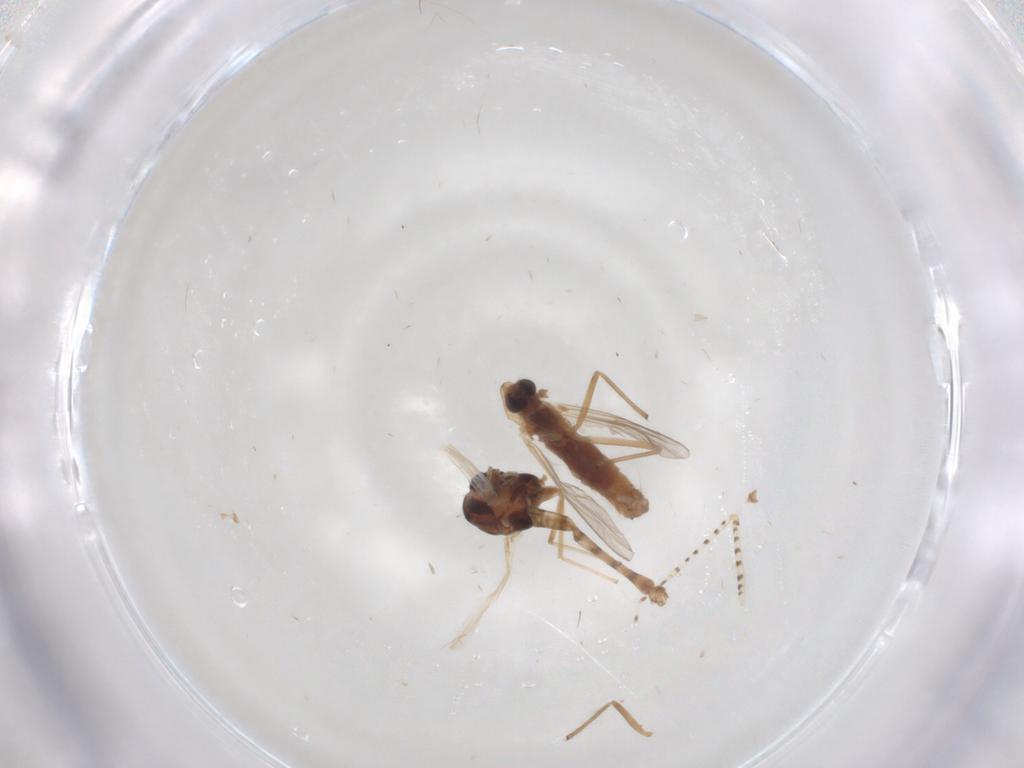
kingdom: Animalia
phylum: Arthropoda
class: Insecta
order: Diptera
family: Chironomidae
